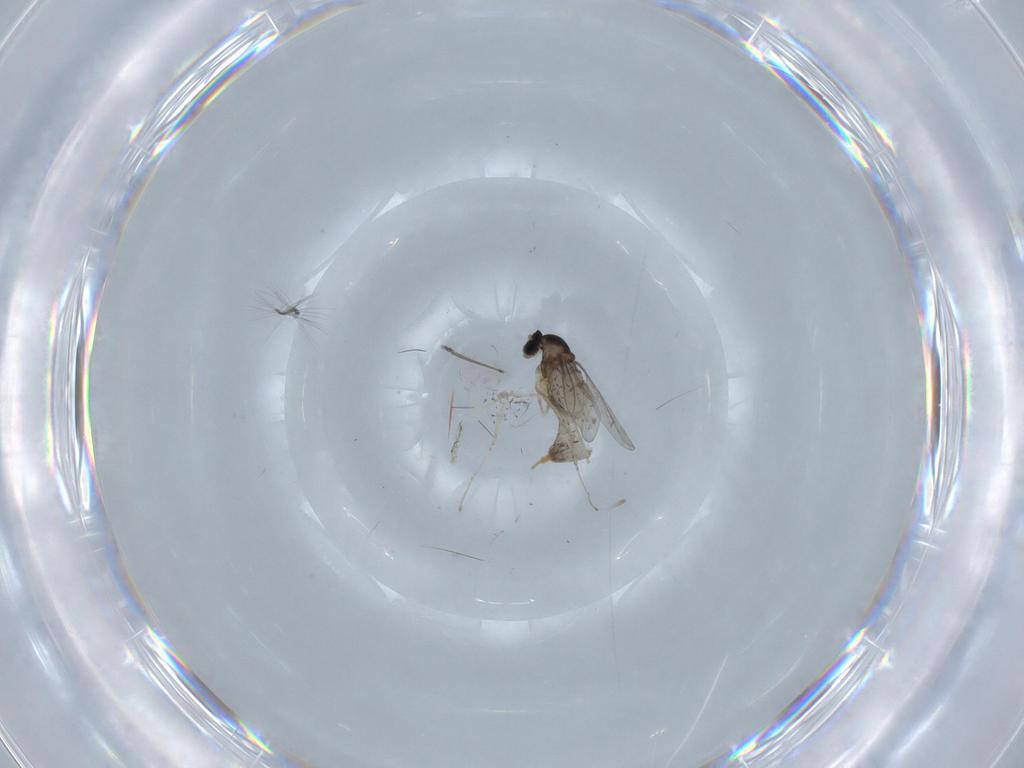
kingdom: Animalia
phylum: Arthropoda
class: Insecta
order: Diptera
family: Cecidomyiidae
